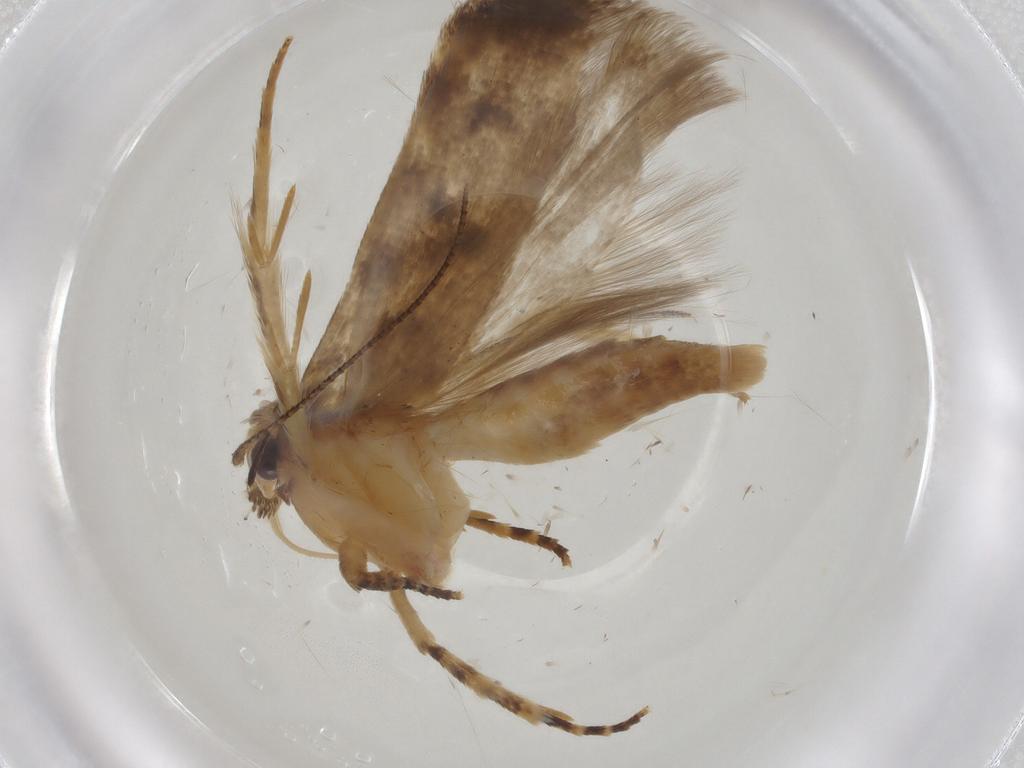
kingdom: Animalia
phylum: Arthropoda
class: Insecta
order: Lepidoptera
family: Gelechiidae
